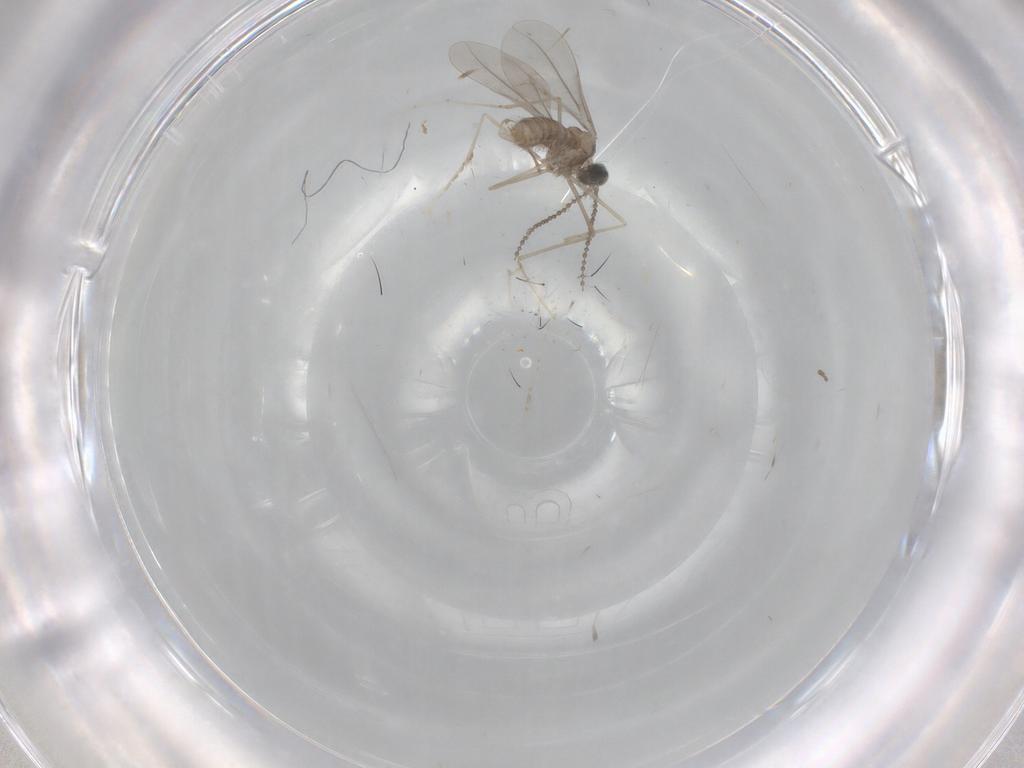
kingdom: Animalia
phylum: Arthropoda
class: Insecta
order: Diptera
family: Cecidomyiidae
